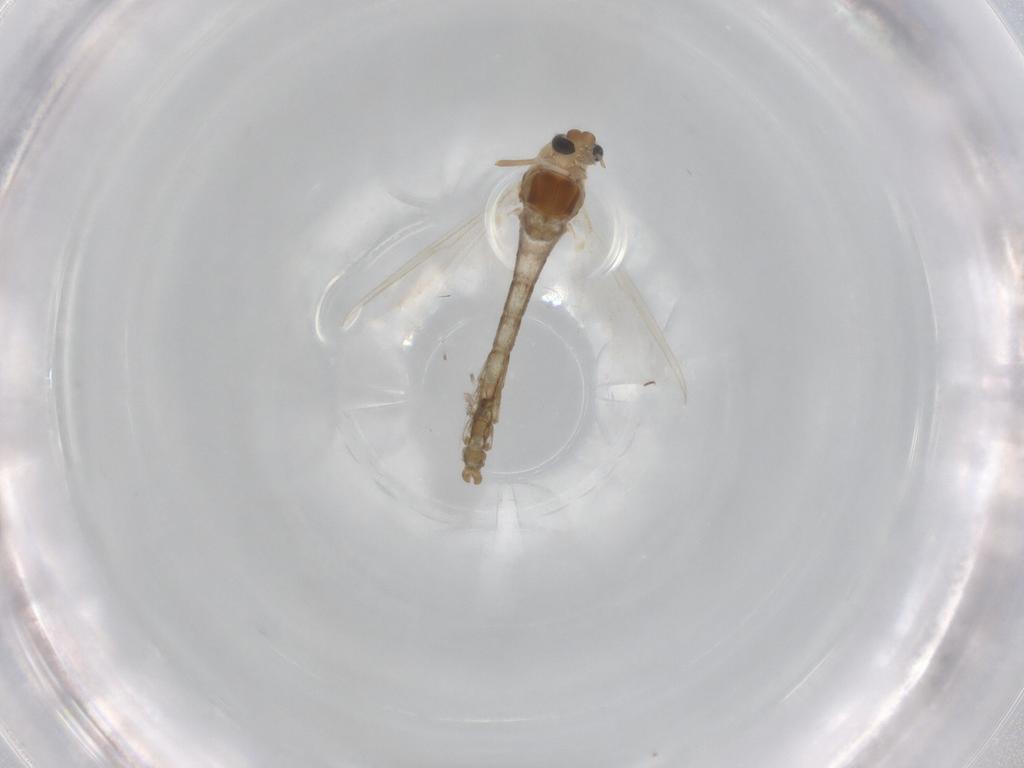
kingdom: Animalia
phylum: Arthropoda
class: Insecta
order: Diptera
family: Chironomidae
